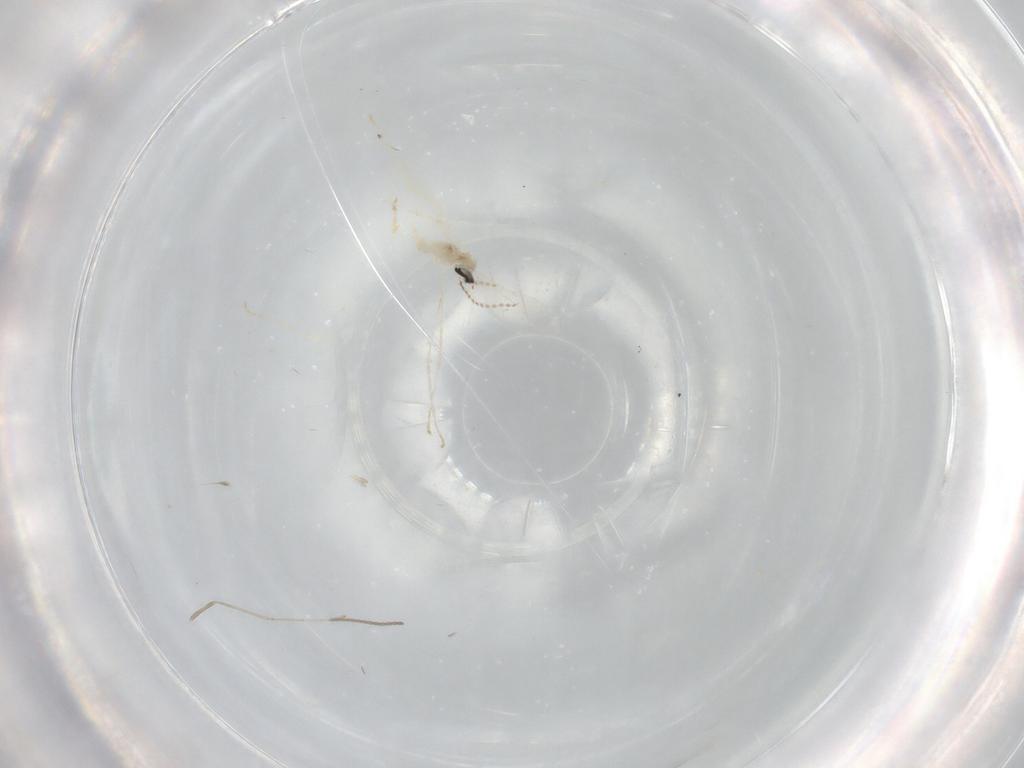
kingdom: Animalia
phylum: Arthropoda
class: Insecta
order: Diptera
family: Cecidomyiidae
